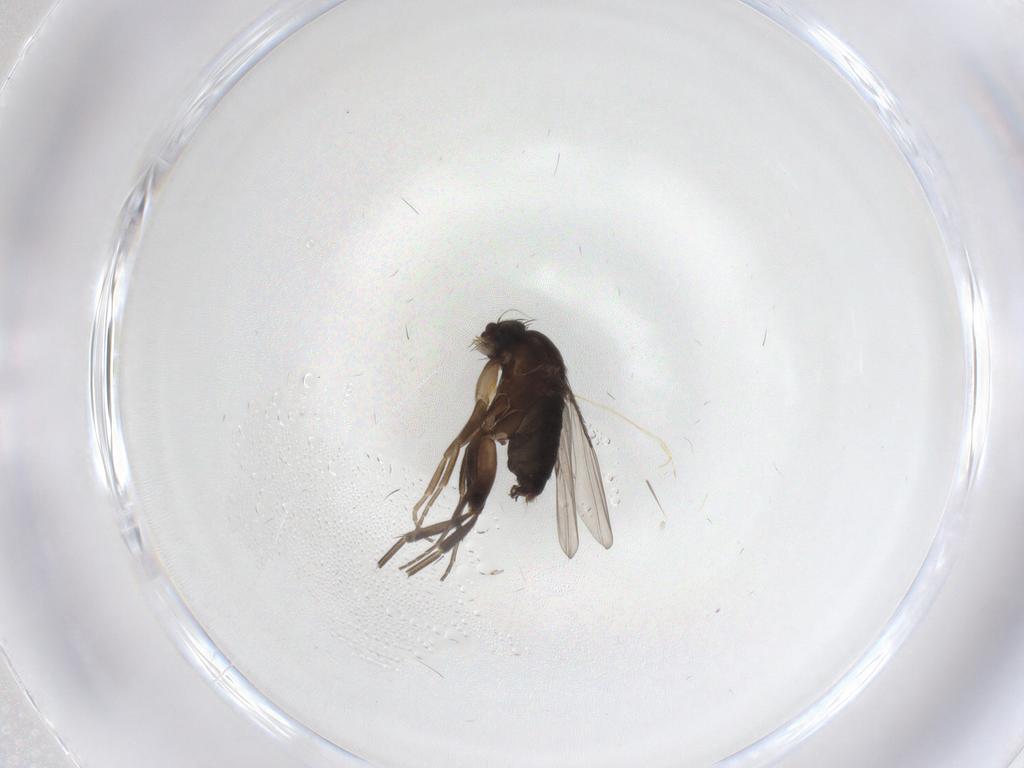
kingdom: Animalia
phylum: Arthropoda
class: Insecta
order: Diptera
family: Phoridae
